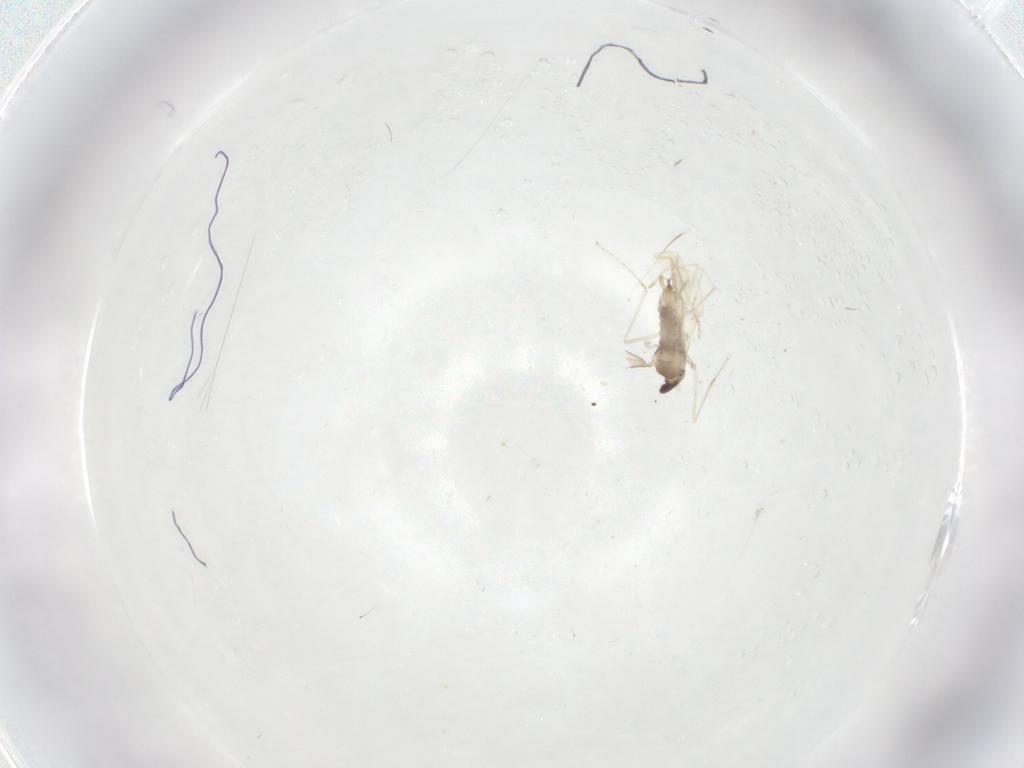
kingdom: Animalia
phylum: Arthropoda
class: Insecta
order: Diptera
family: Phoridae
